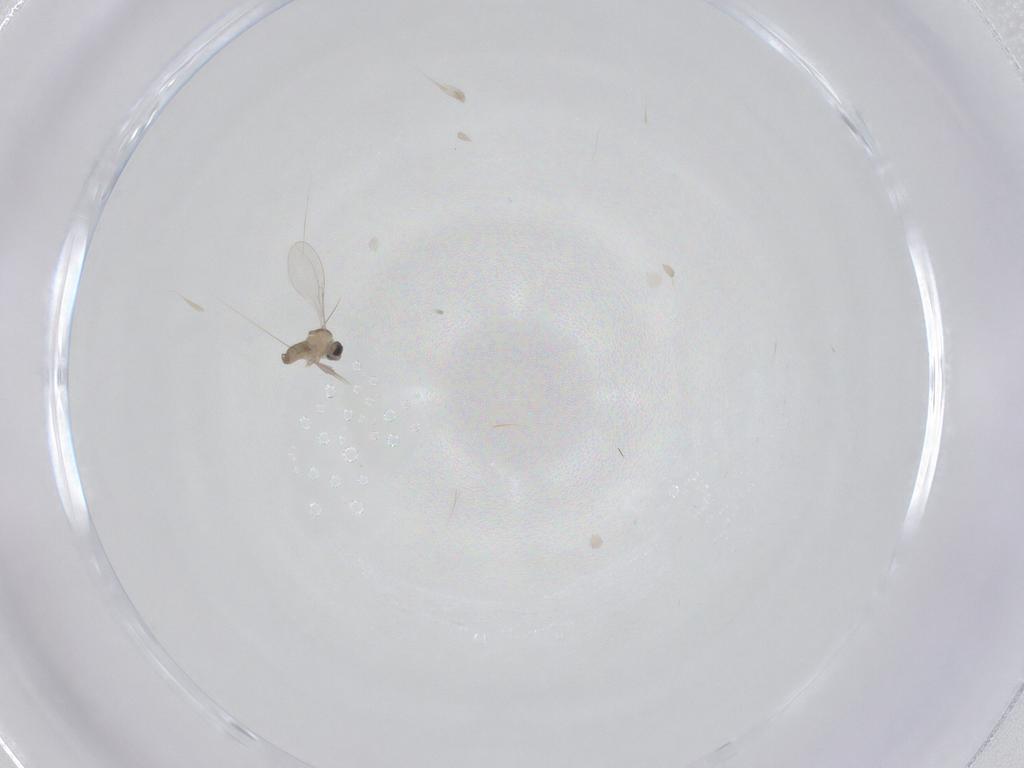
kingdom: Animalia
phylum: Arthropoda
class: Insecta
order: Diptera
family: Cecidomyiidae
